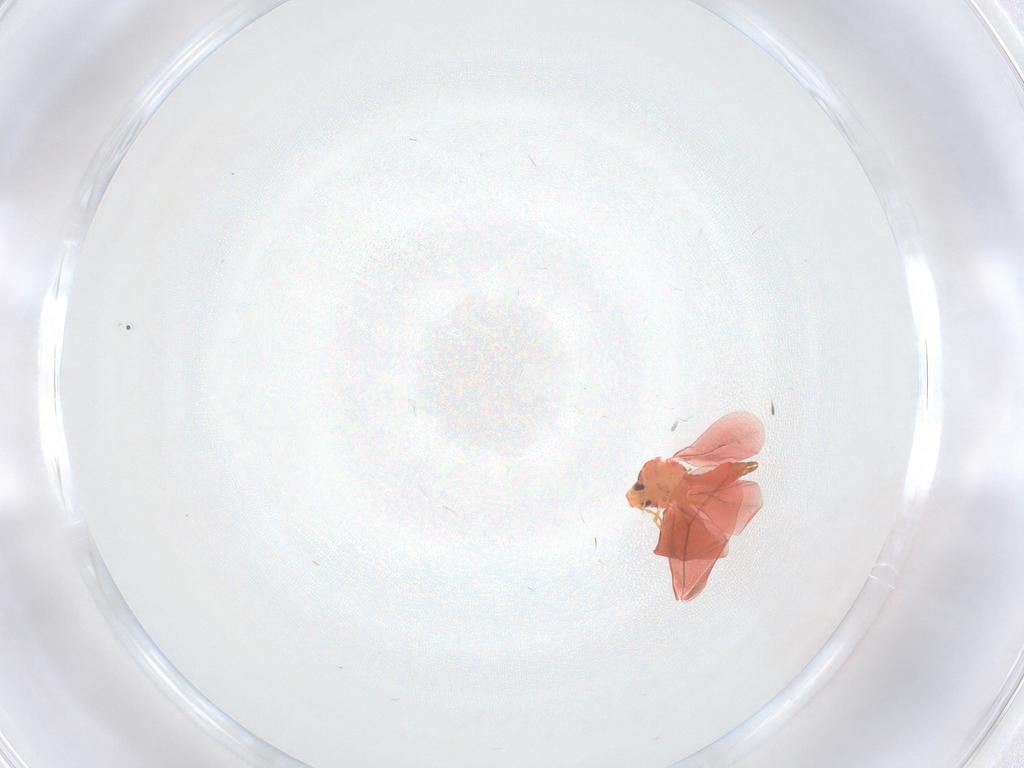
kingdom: Animalia
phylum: Arthropoda
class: Insecta
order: Hemiptera
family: Aleyrodidae
